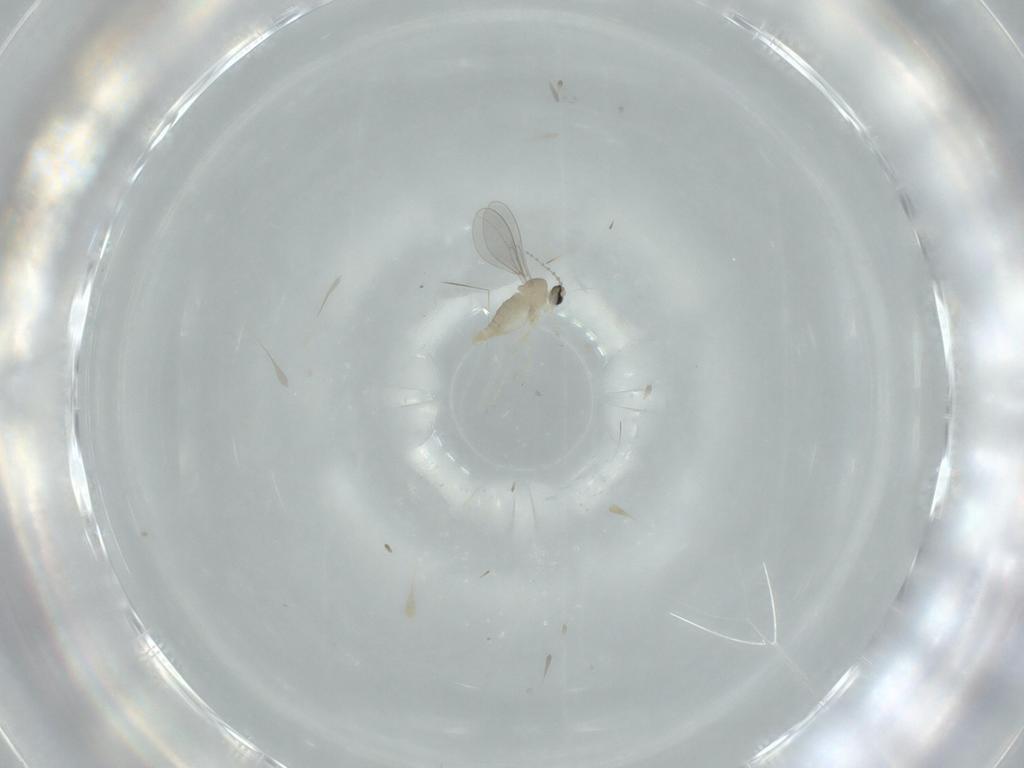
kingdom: Animalia
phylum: Arthropoda
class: Insecta
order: Diptera
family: Cecidomyiidae
